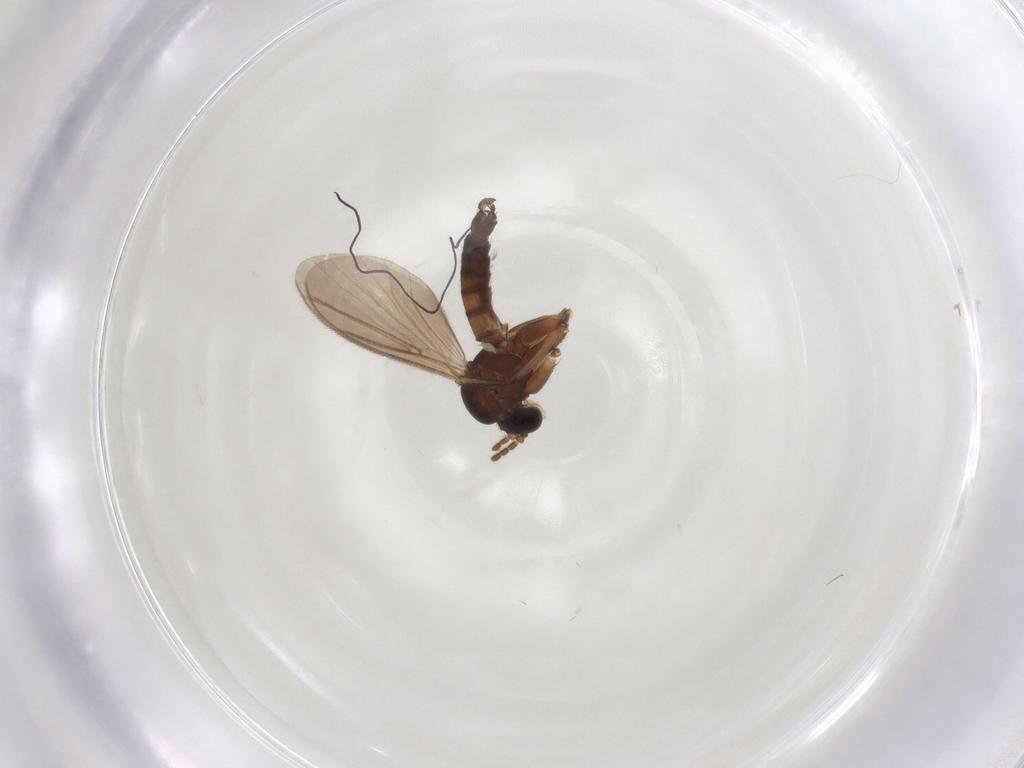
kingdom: Animalia
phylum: Arthropoda
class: Insecta
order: Diptera
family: Mycetophilidae
